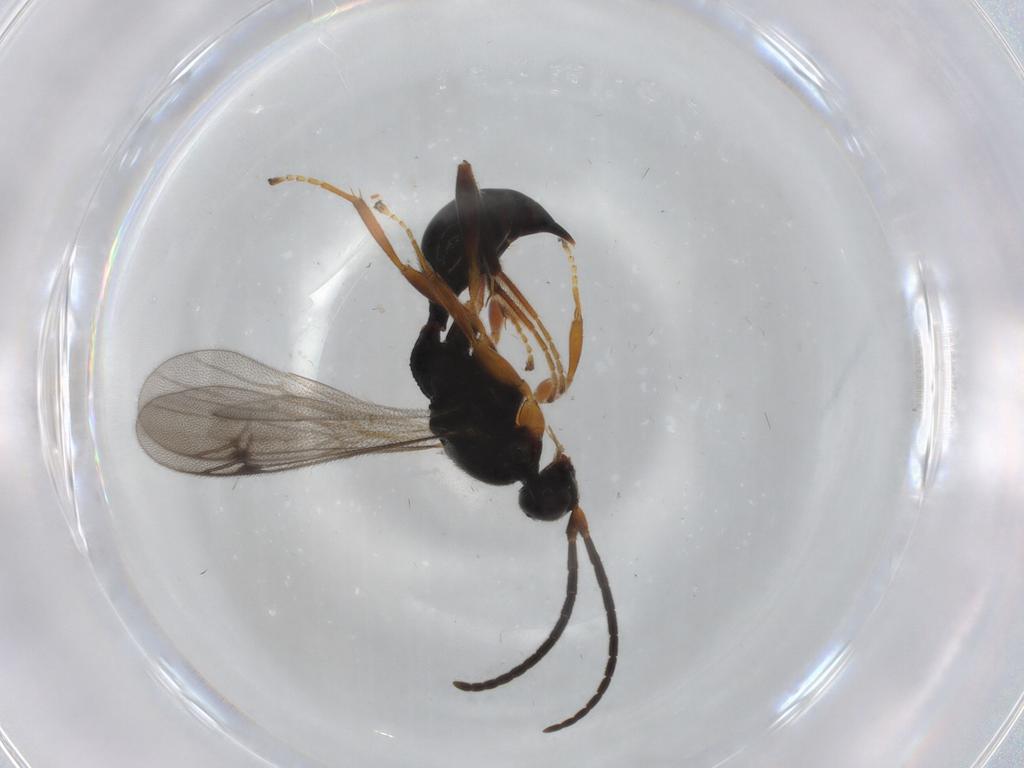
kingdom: Animalia
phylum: Arthropoda
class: Insecta
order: Hymenoptera
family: Proctotrupidae
